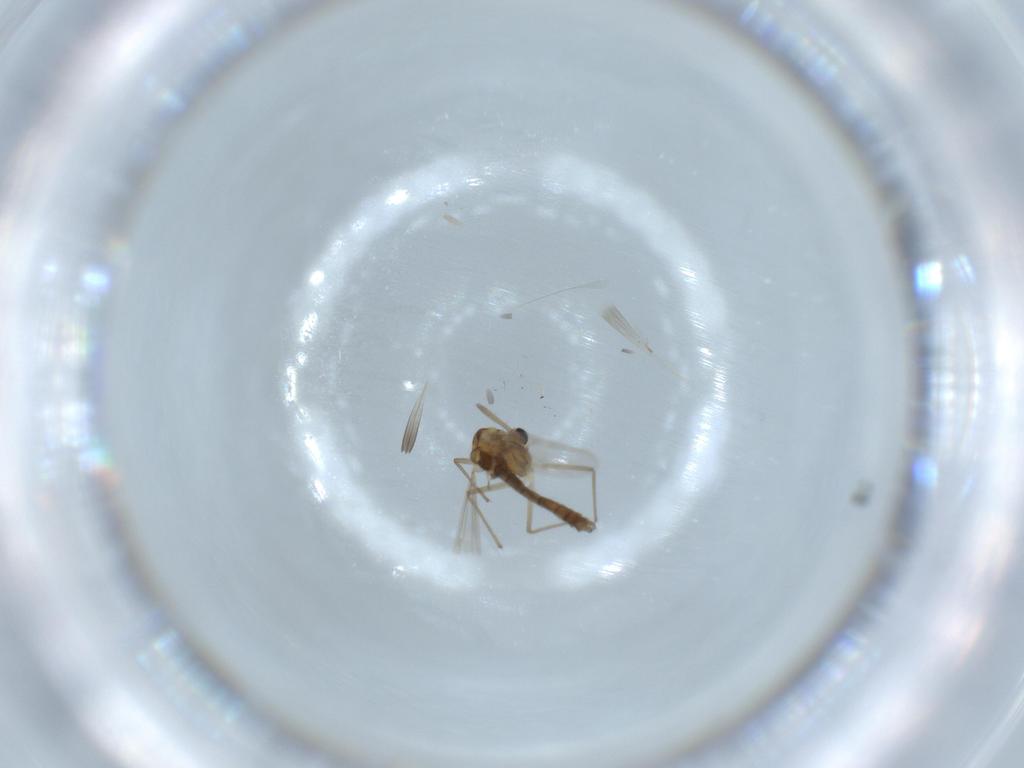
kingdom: Animalia
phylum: Arthropoda
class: Insecta
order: Diptera
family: Chironomidae
